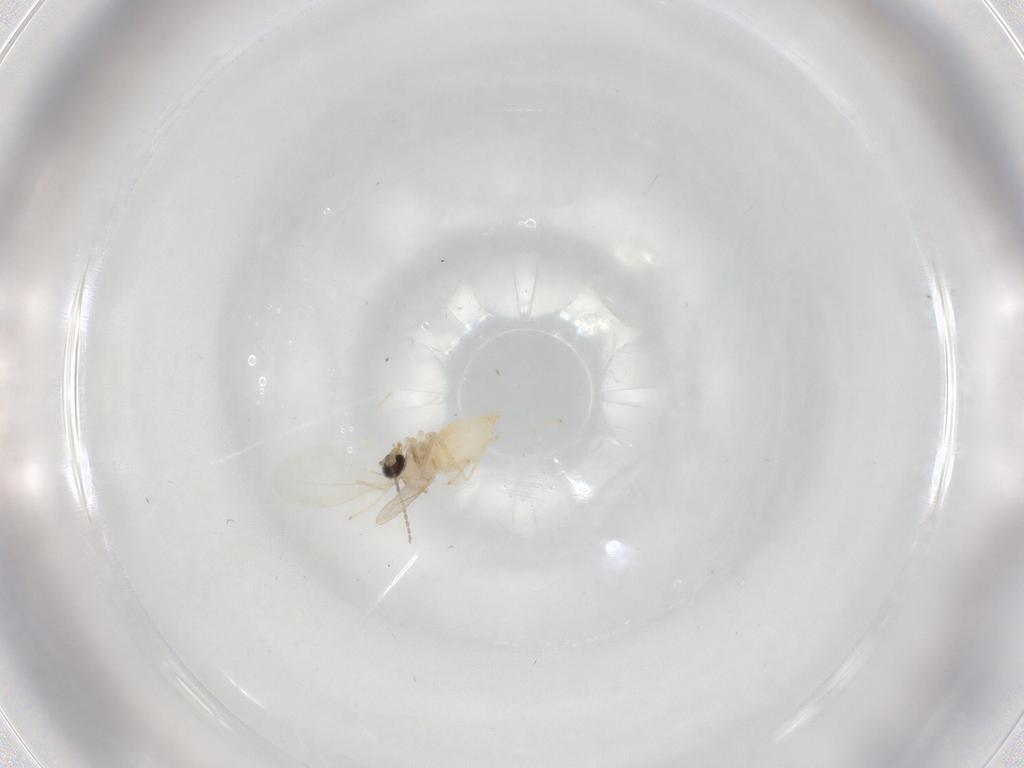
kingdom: Animalia
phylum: Arthropoda
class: Insecta
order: Diptera
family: Cecidomyiidae
